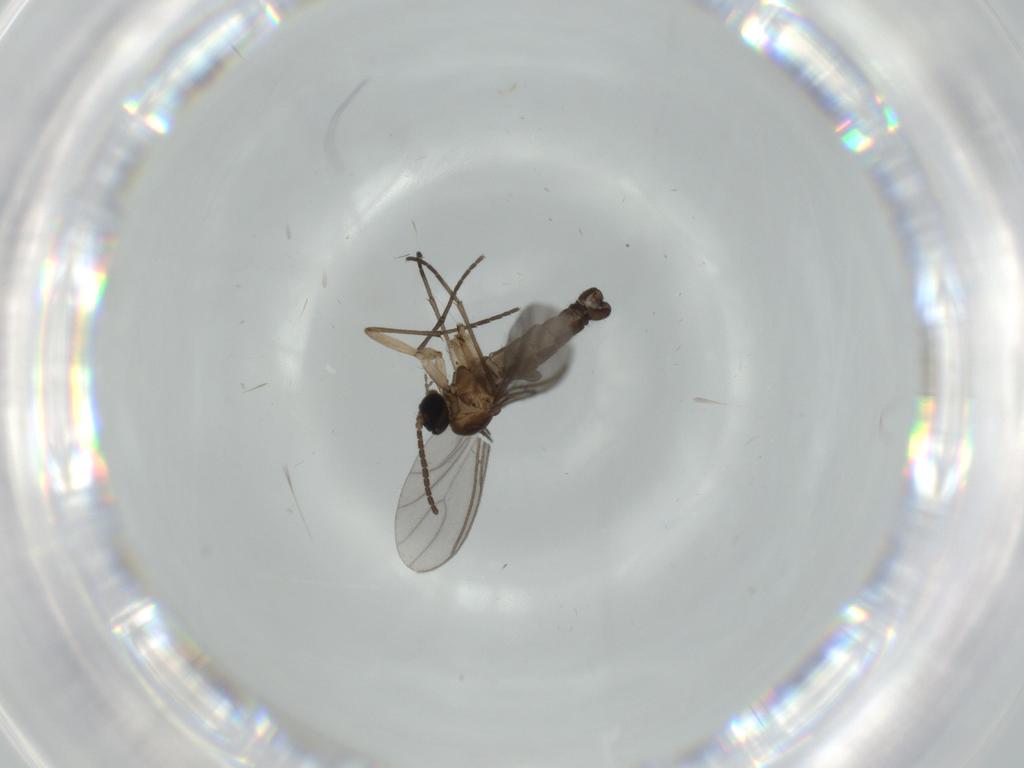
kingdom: Animalia
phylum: Arthropoda
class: Insecta
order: Diptera
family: Sciaridae
